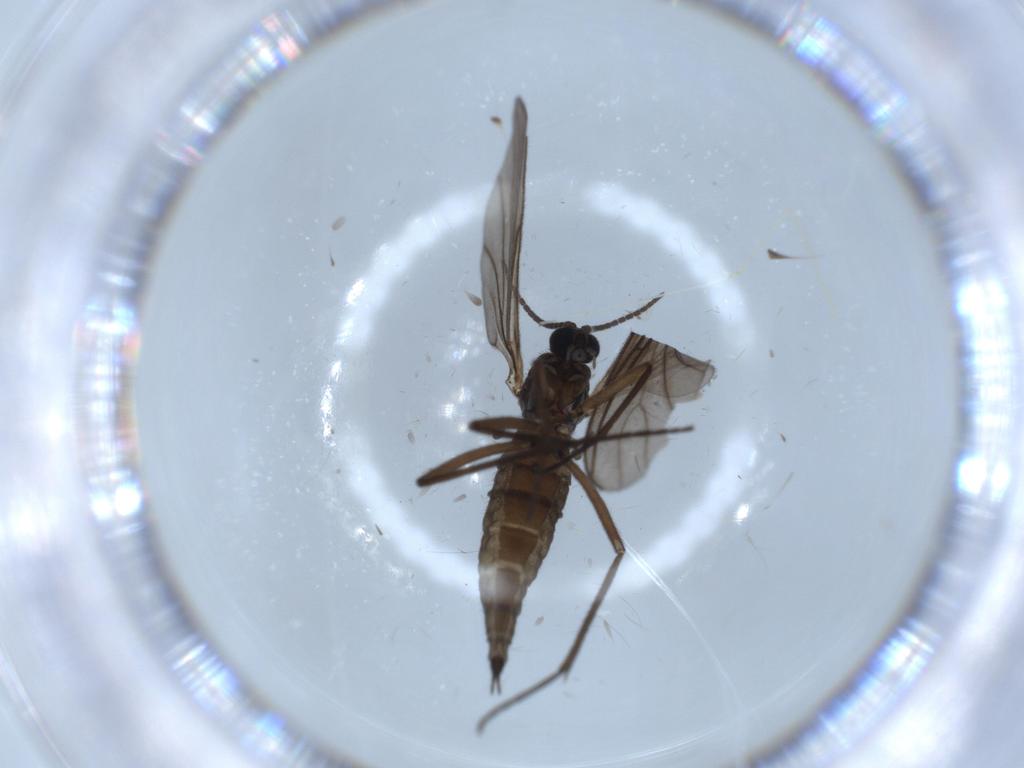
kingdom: Animalia
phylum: Arthropoda
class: Insecta
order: Diptera
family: Sciaridae
